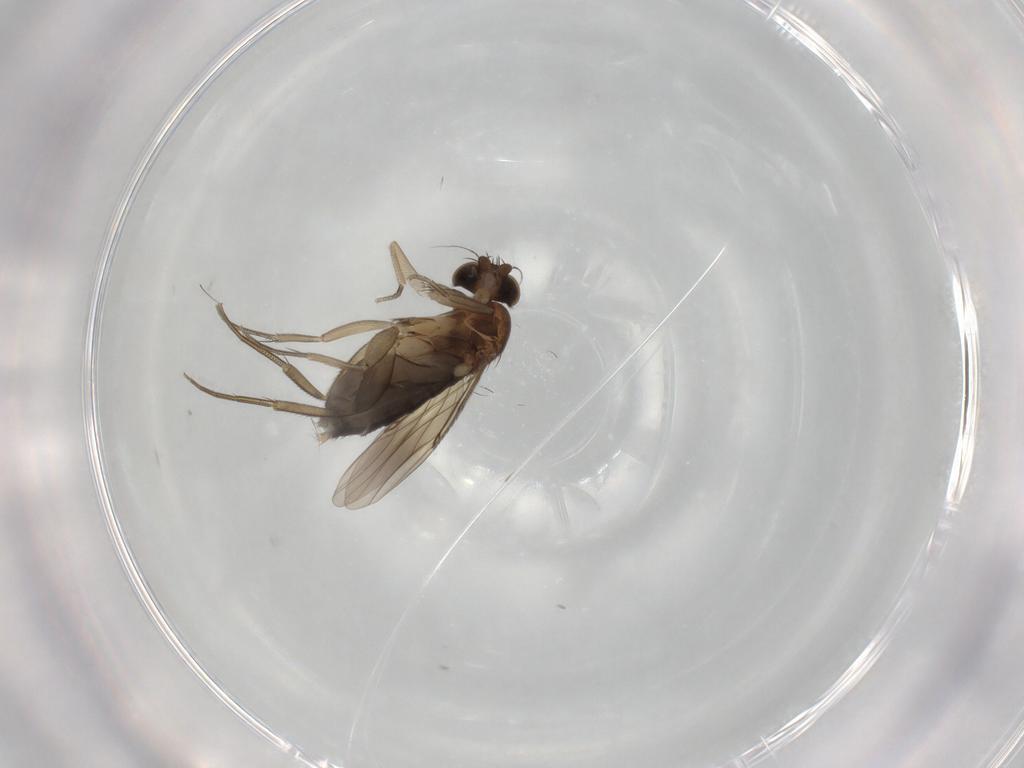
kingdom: Animalia
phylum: Arthropoda
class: Insecta
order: Diptera
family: Phoridae
